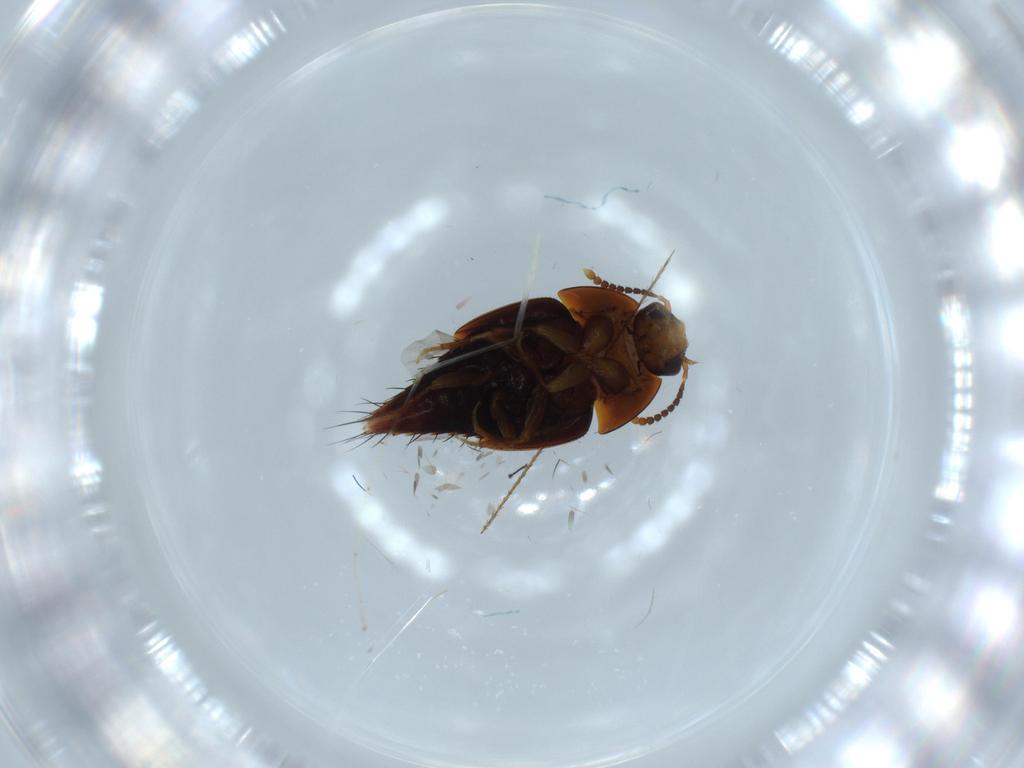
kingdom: Animalia
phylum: Arthropoda
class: Insecta
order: Coleoptera
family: Staphylinidae
